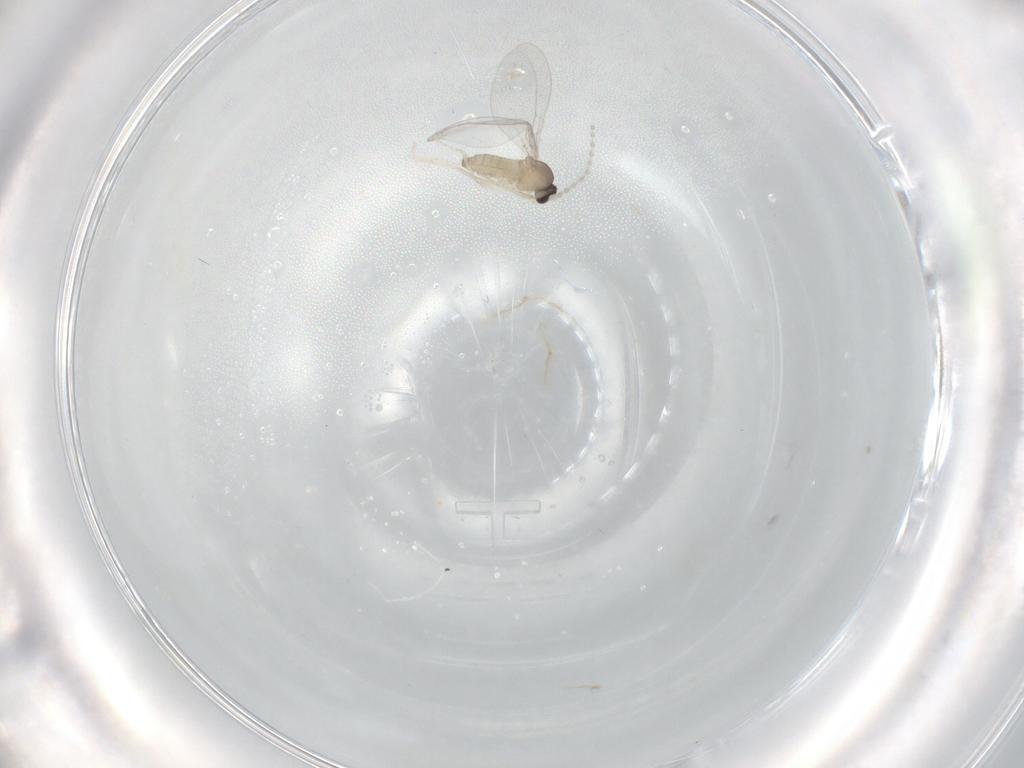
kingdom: Animalia
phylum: Arthropoda
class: Insecta
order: Diptera
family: Cecidomyiidae
